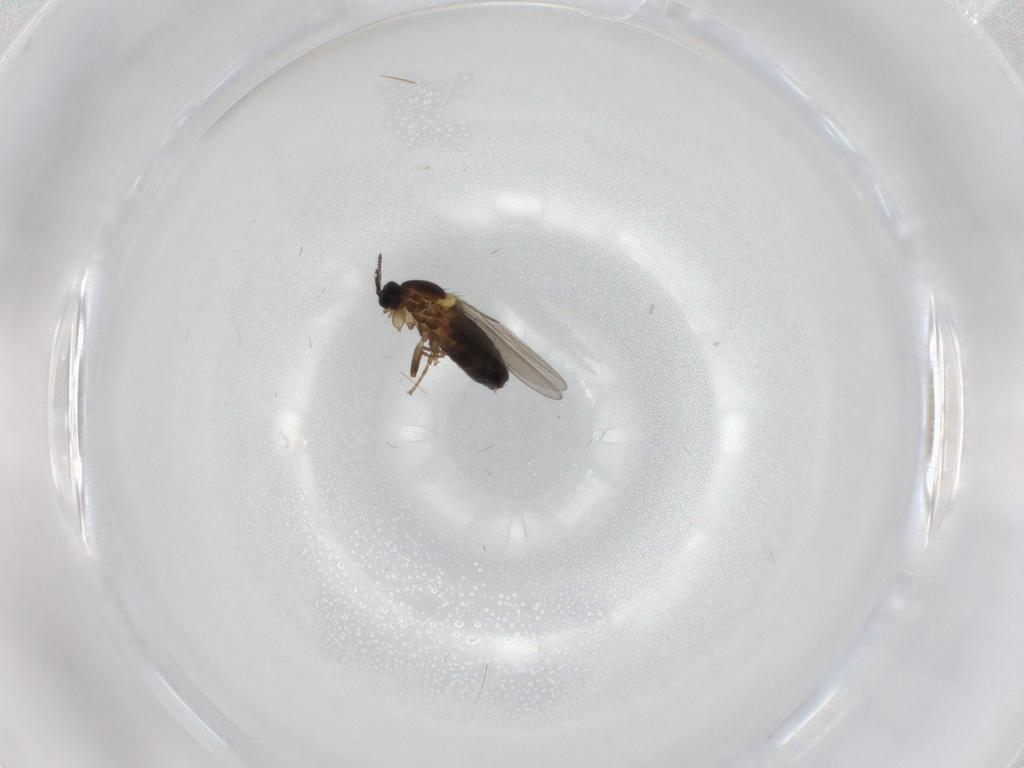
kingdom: Animalia
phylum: Arthropoda
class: Insecta
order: Diptera
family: Scatopsidae
